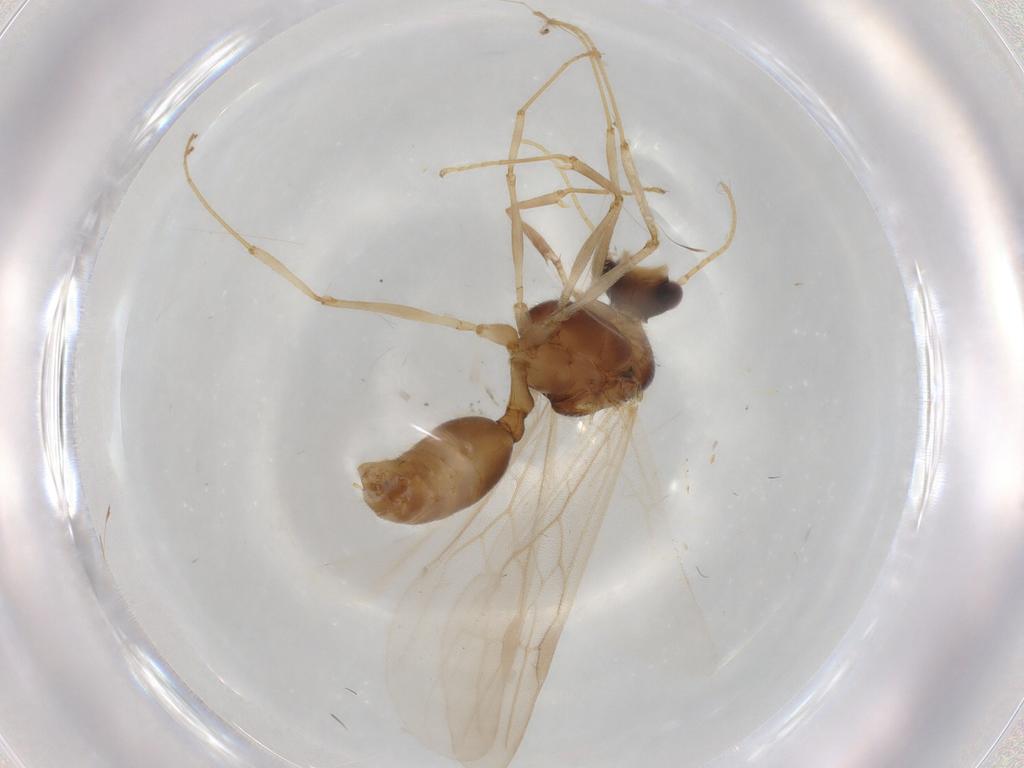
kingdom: Animalia
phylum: Arthropoda
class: Insecta
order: Hymenoptera
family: Formicidae
